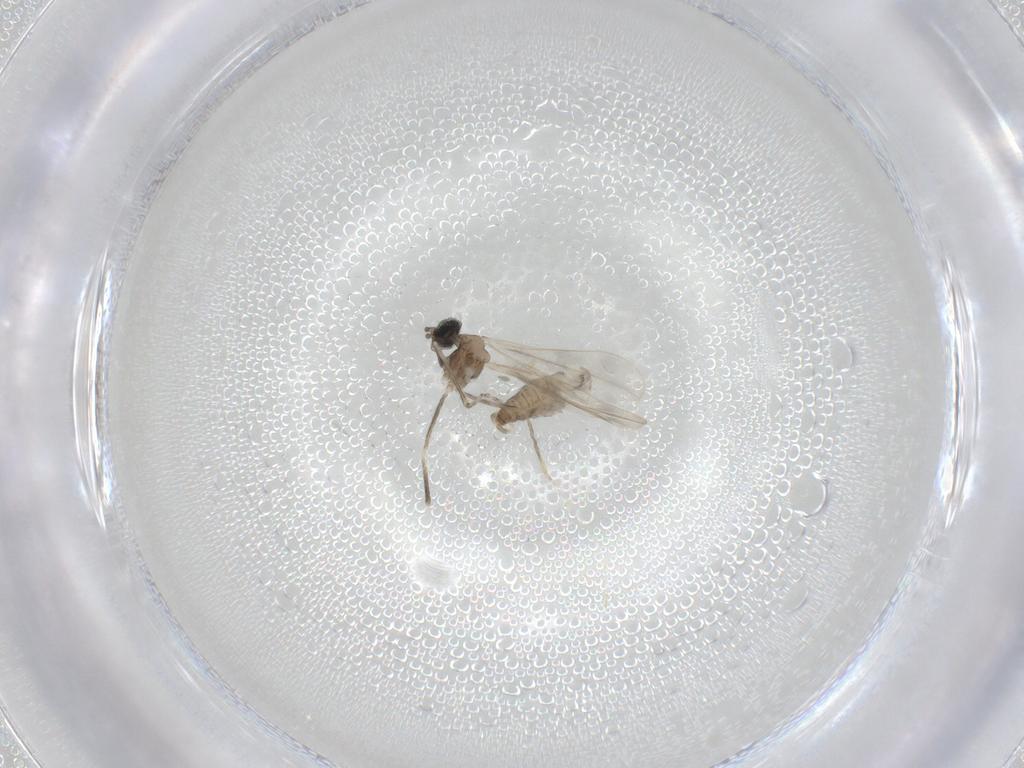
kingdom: Animalia
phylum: Arthropoda
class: Insecta
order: Diptera
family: Cecidomyiidae
